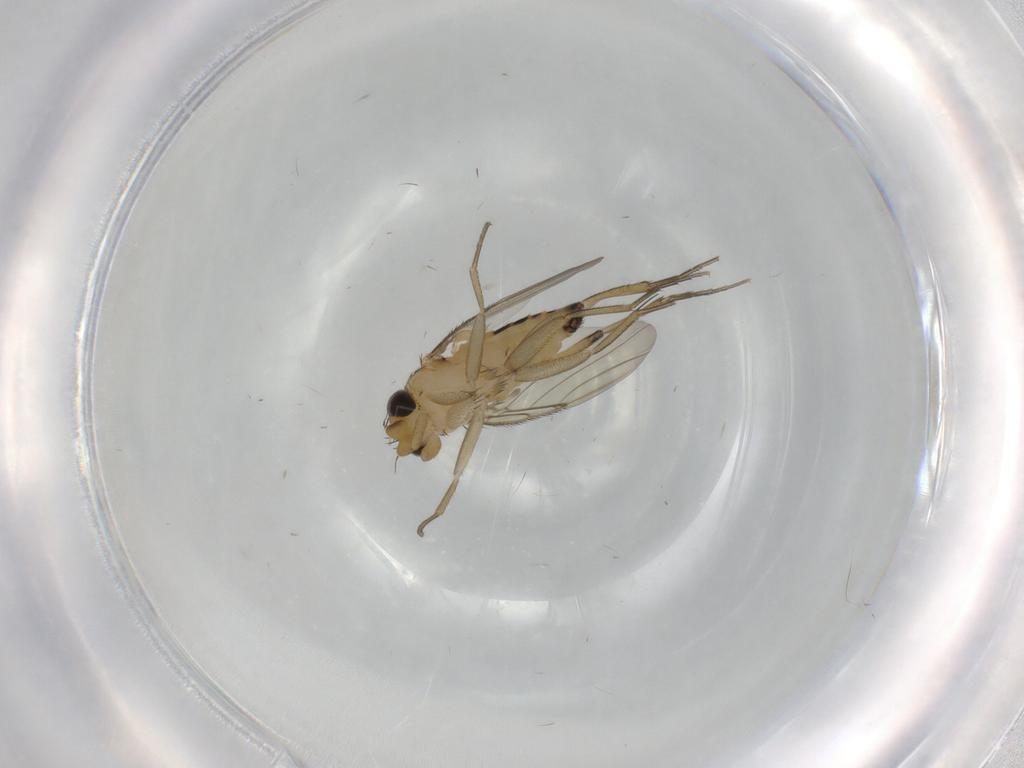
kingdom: Animalia
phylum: Arthropoda
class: Insecta
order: Diptera
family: Phoridae
